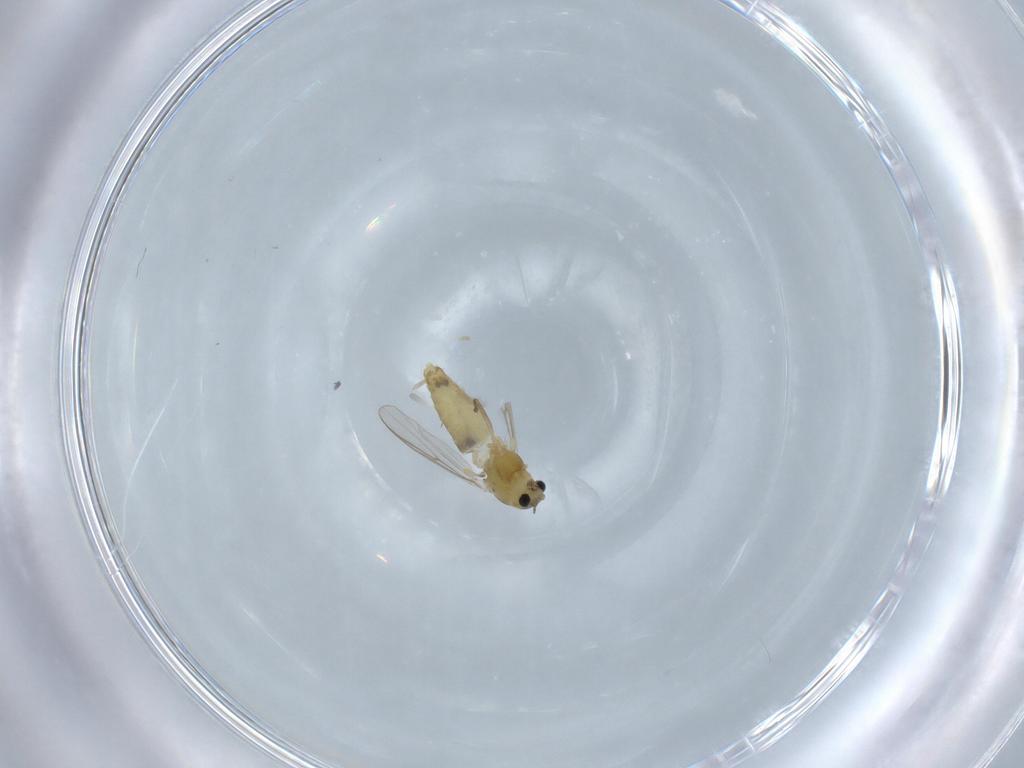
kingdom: Animalia
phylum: Arthropoda
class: Insecta
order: Diptera
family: Chironomidae
